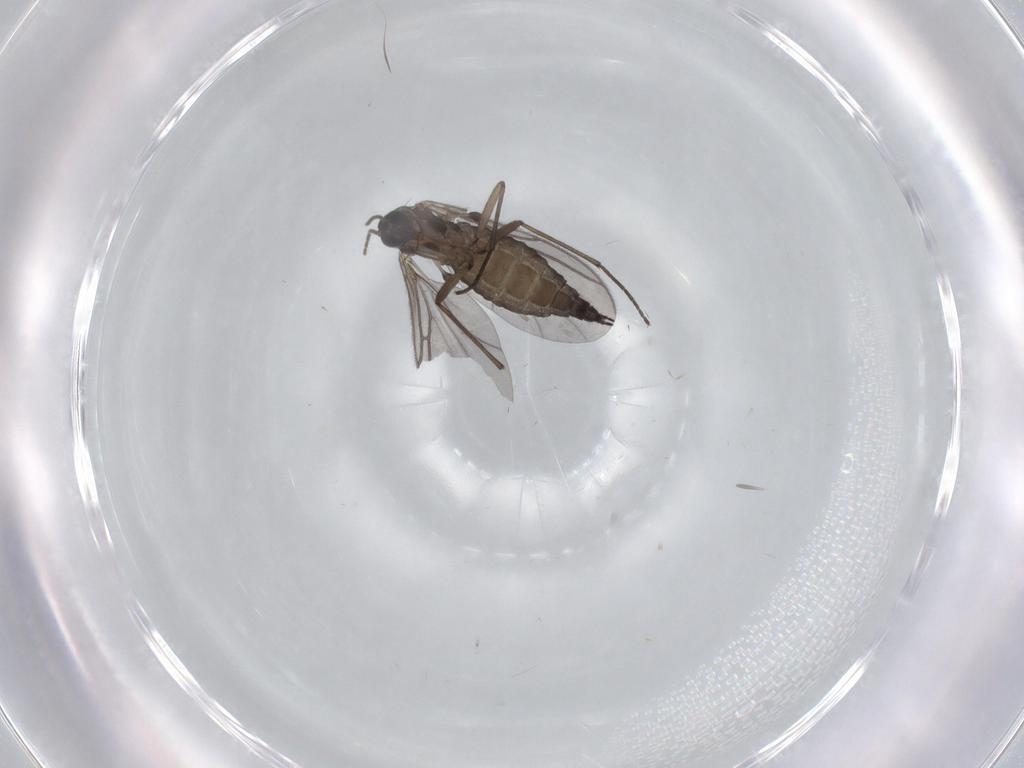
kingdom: Animalia
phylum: Arthropoda
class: Insecta
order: Diptera
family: Sciaridae
